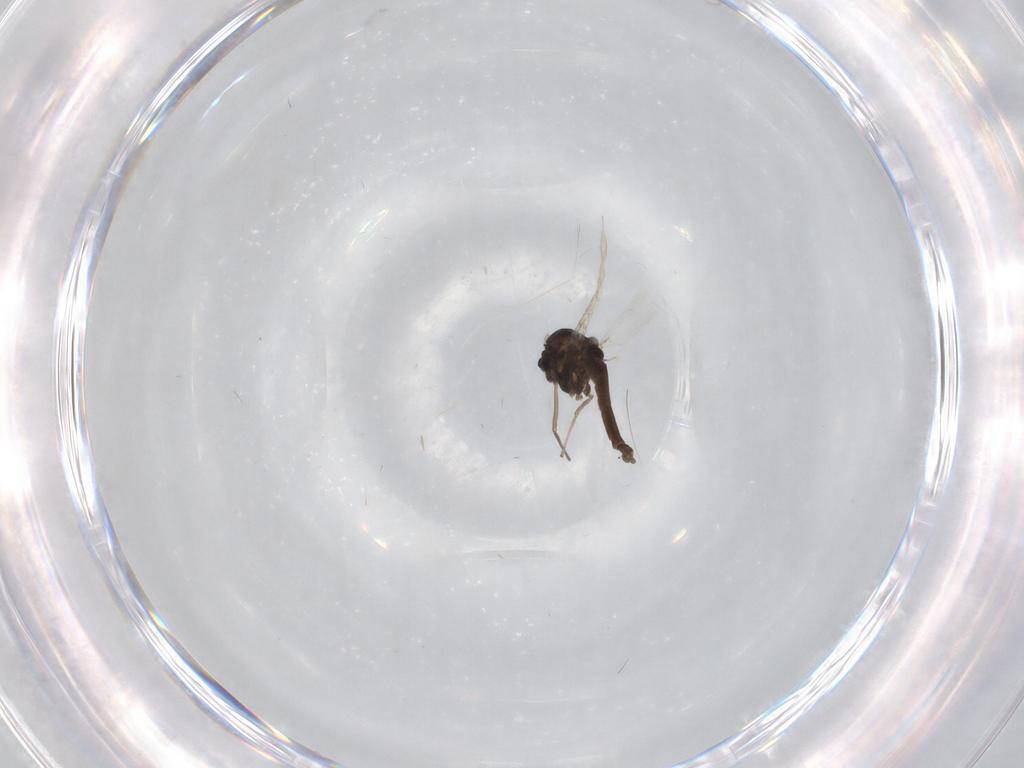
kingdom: Animalia
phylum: Arthropoda
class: Insecta
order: Diptera
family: Chironomidae
